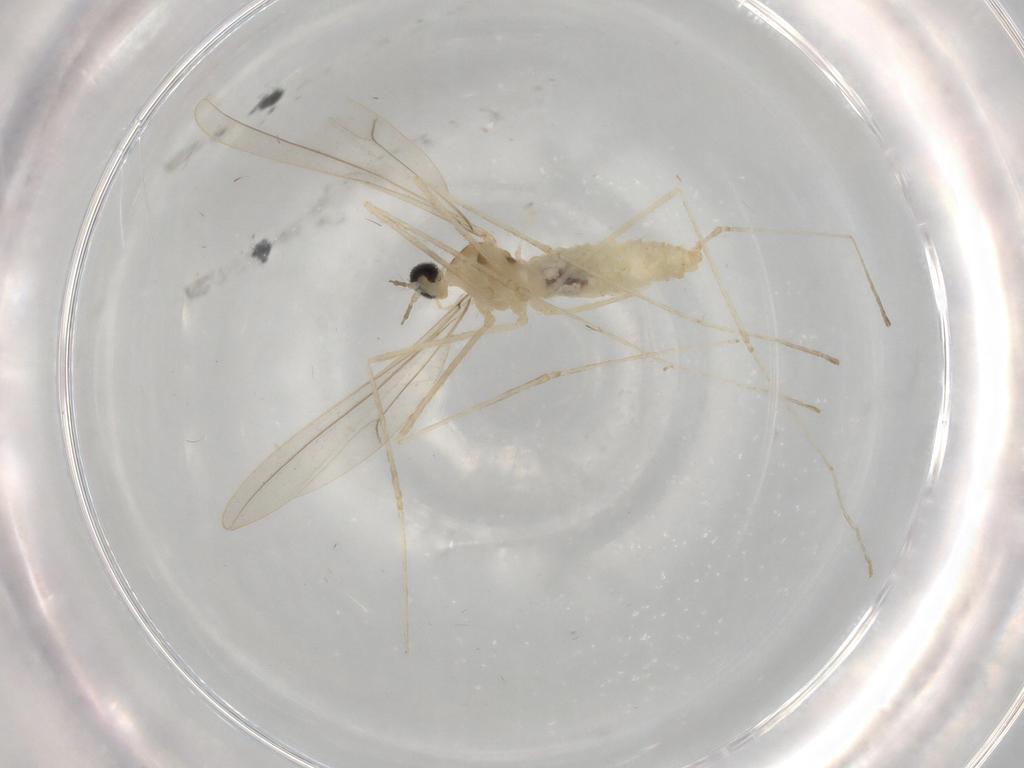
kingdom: Animalia
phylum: Arthropoda
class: Insecta
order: Diptera
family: Cecidomyiidae
